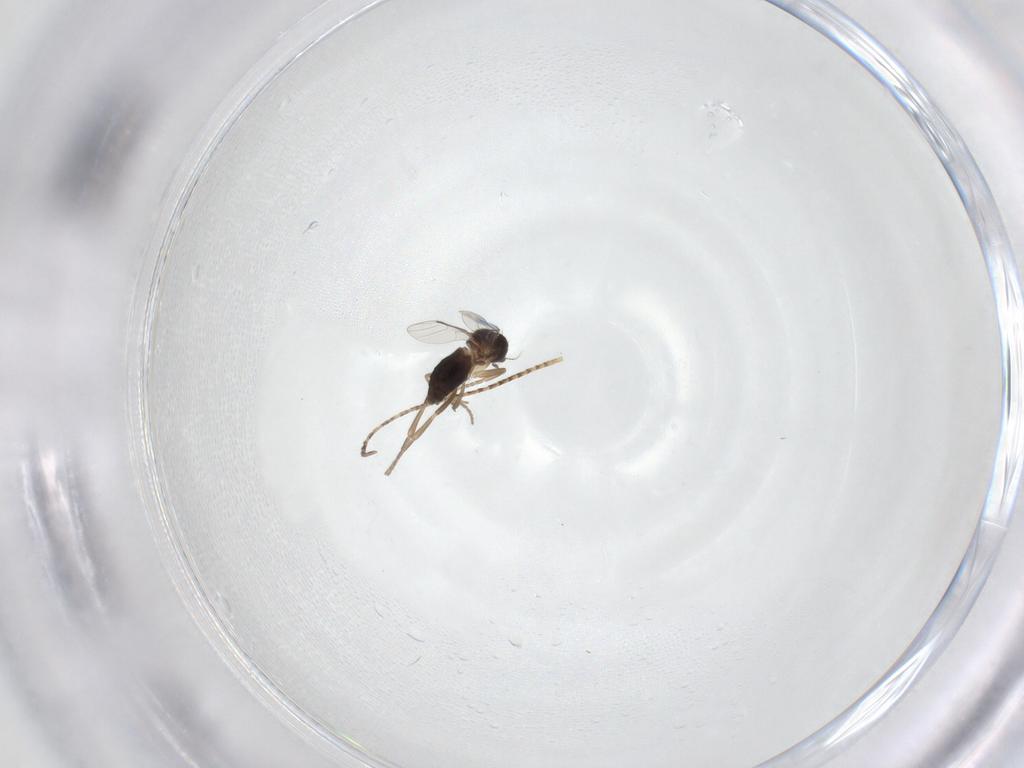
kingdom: Animalia
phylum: Arthropoda
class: Insecta
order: Diptera
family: Phoridae
